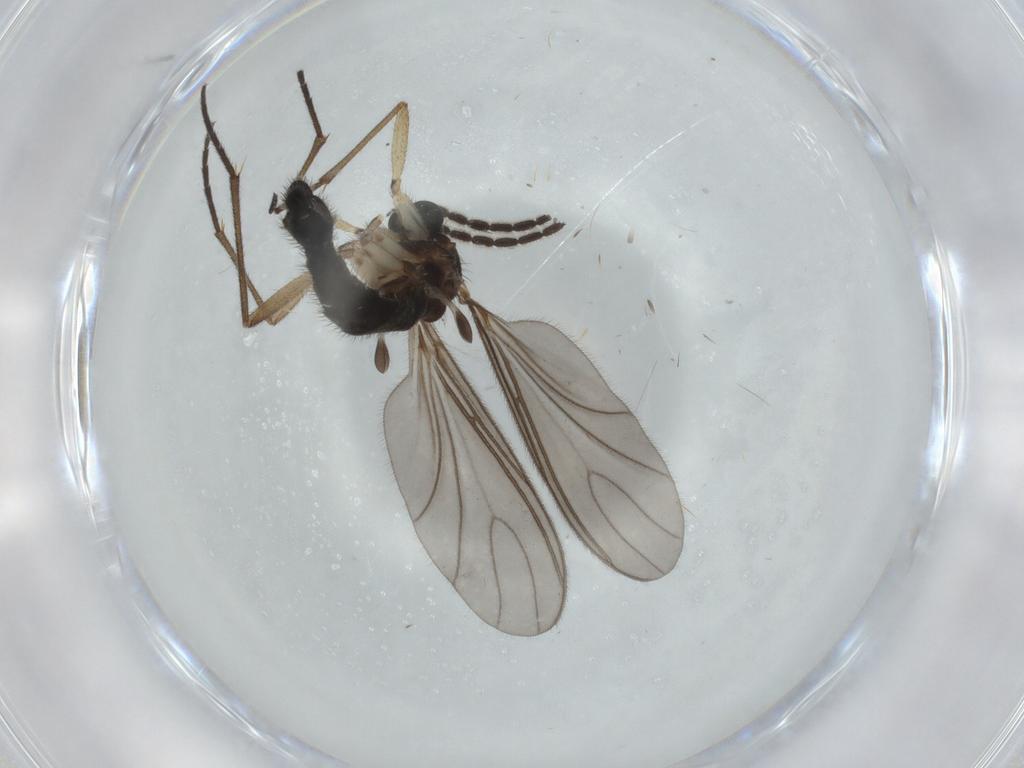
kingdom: Animalia
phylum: Arthropoda
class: Insecta
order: Diptera
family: Sciaridae
